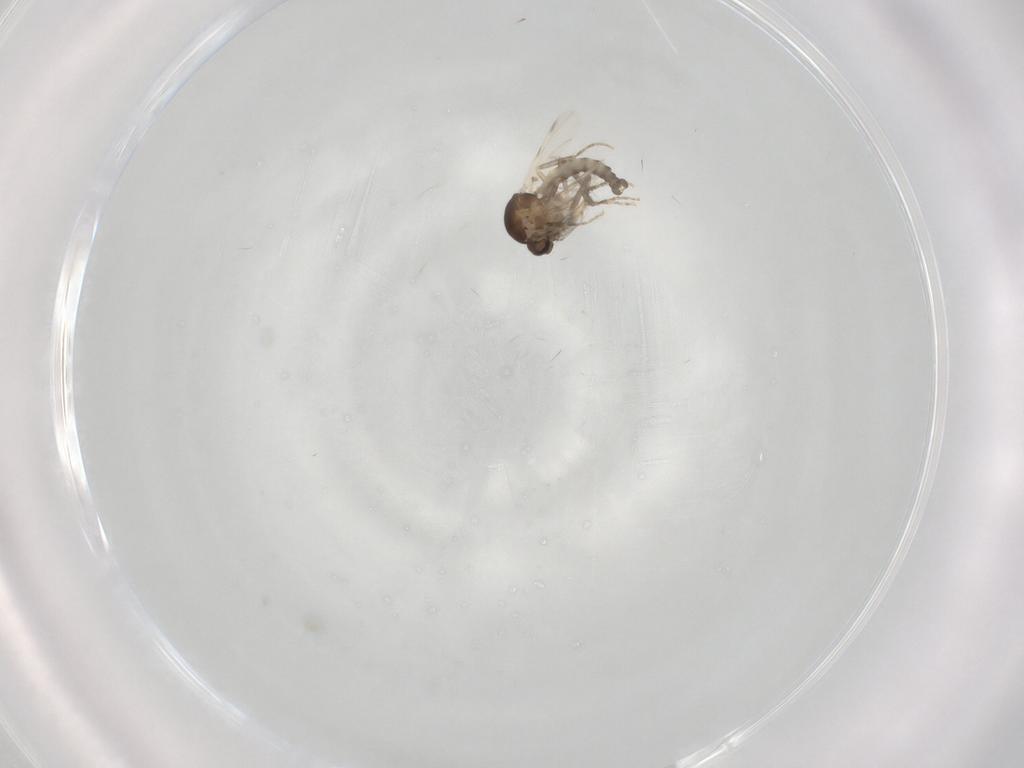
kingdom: Animalia
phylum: Arthropoda
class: Insecta
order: Diptera
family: Ceratopogonidae
